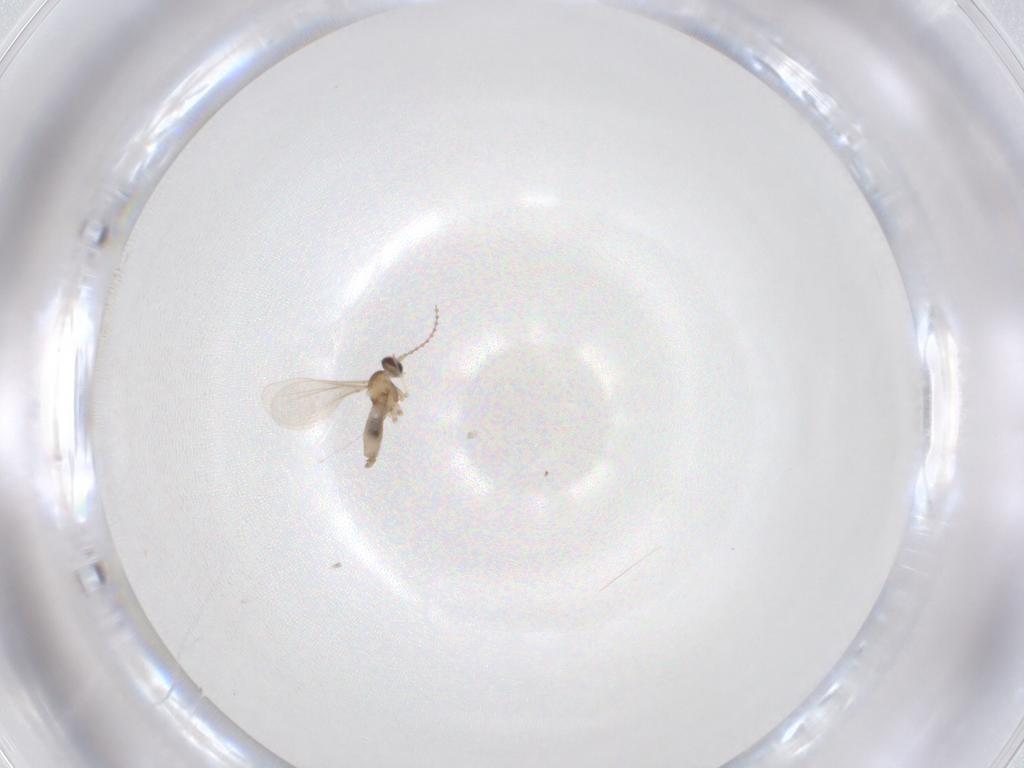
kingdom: Animalia
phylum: Arthropoda
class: Insecta
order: Diptera
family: Cecidomyiidae
